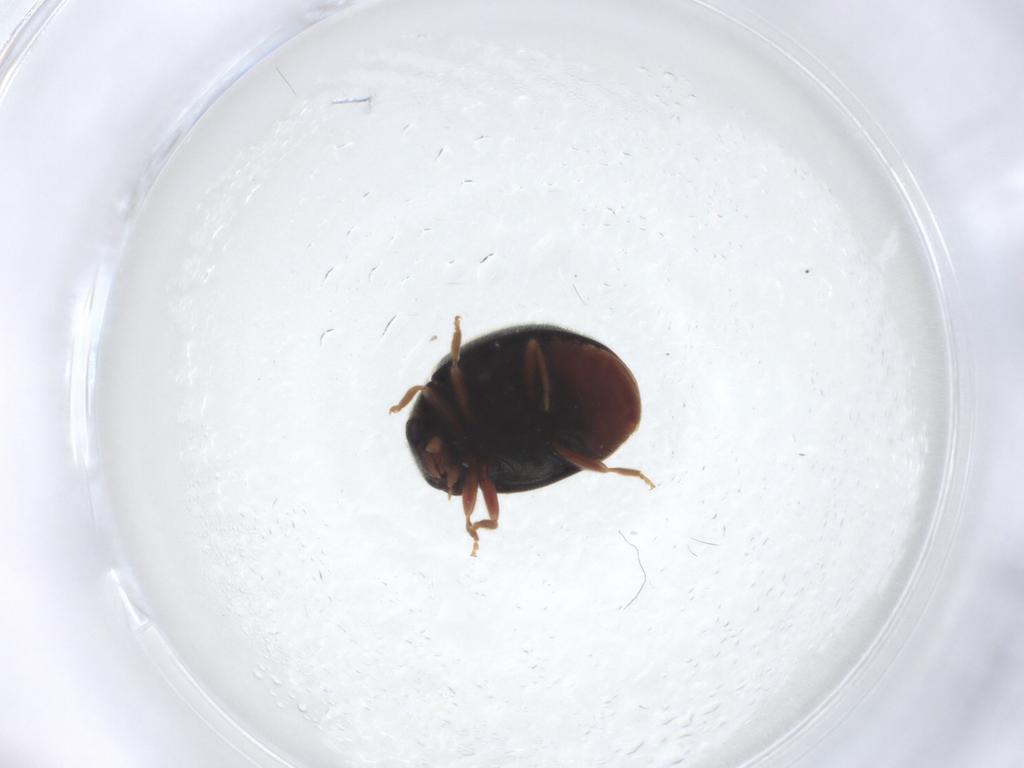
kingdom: Animalia
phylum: Arthropoda
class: Insecta
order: Coleoptera
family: Coccinellidae
